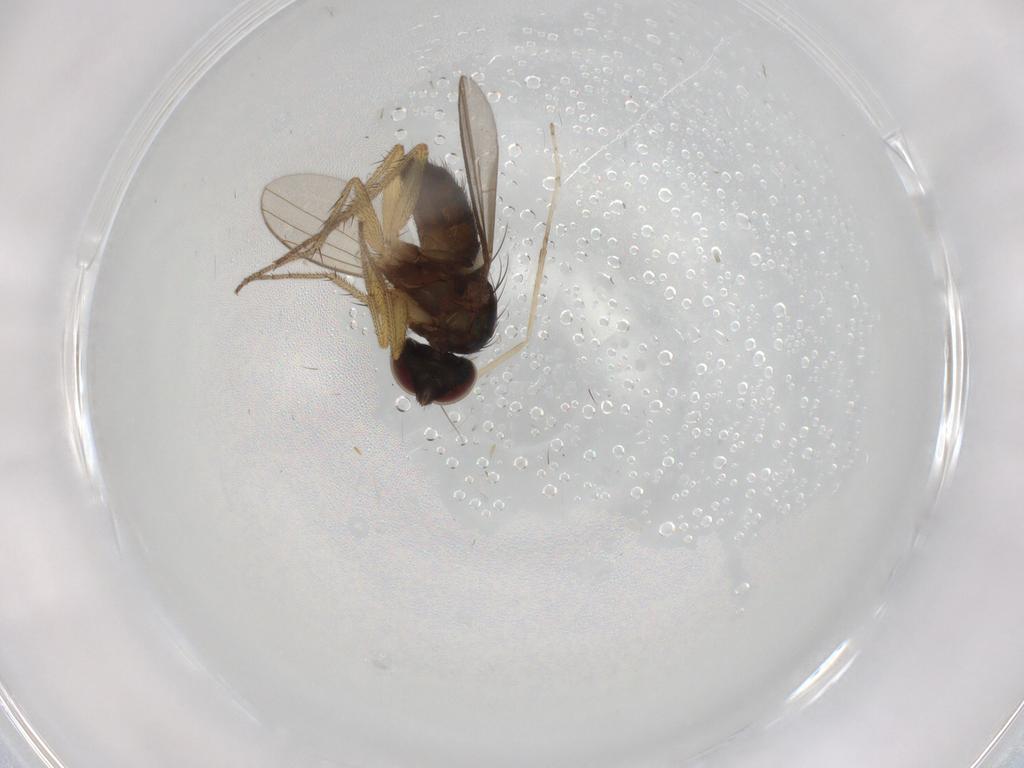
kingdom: Animalia
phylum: Arthropoda
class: Insecta
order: Diptera
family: Dolichopodidae
